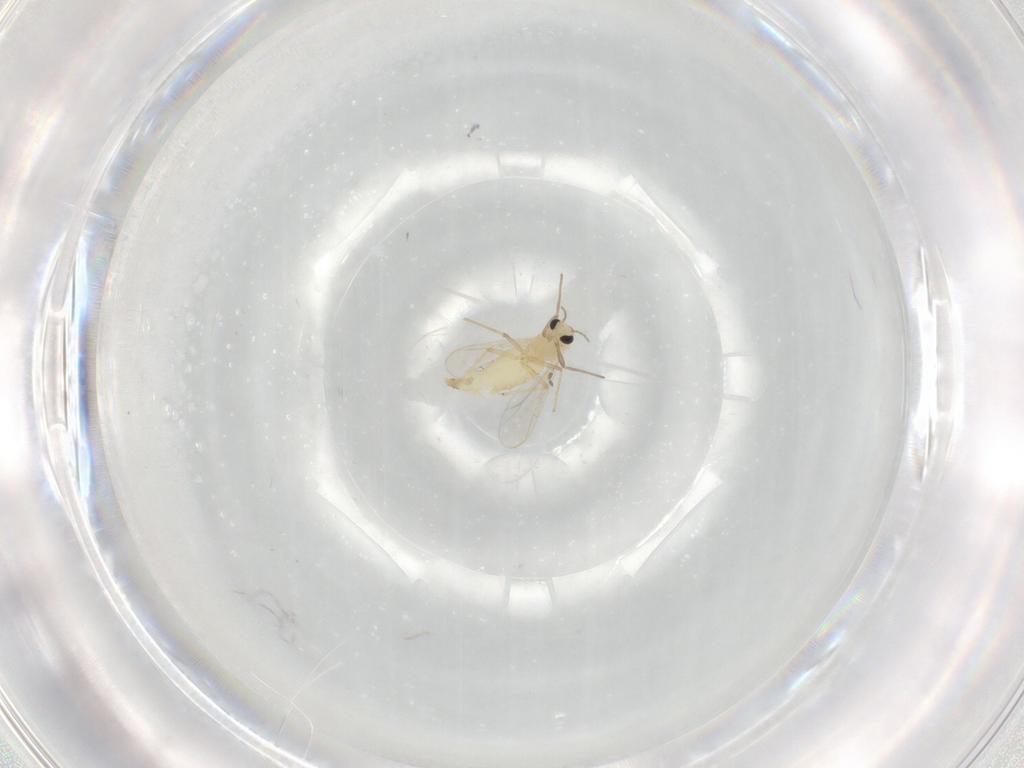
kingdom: Animalia
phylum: Arthropoda
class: Insecta
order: Diptera
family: Chironomidae
